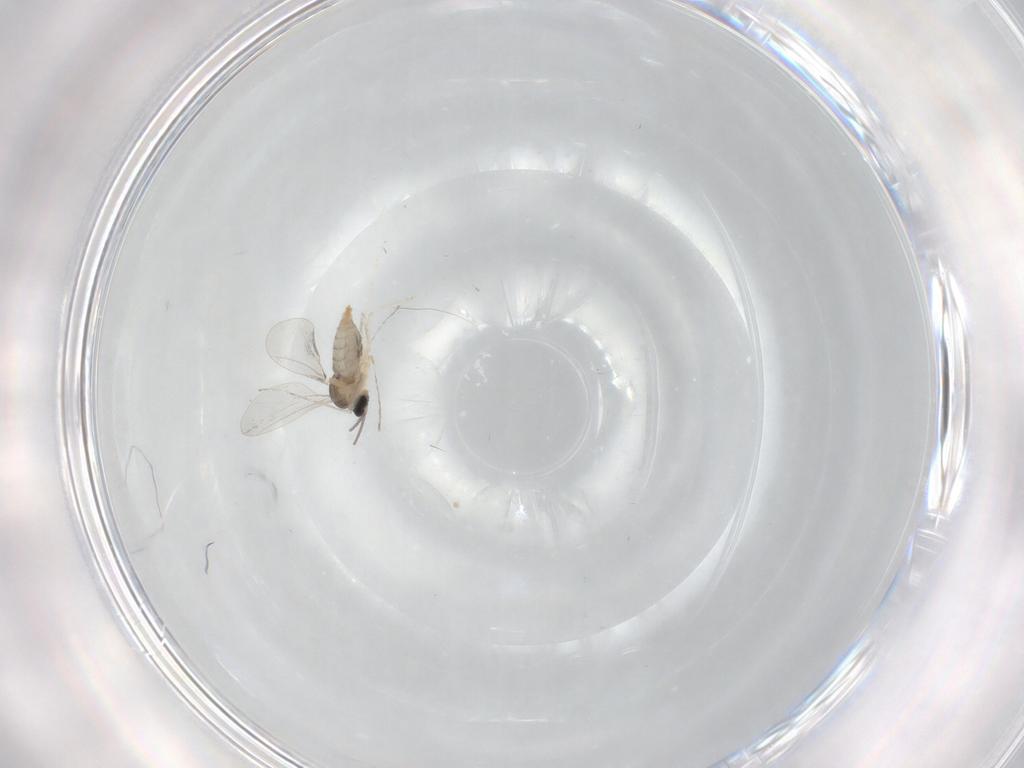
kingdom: Animalia
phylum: Arthropoda
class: Insecta
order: Diptera
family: Cecidomyiidae
